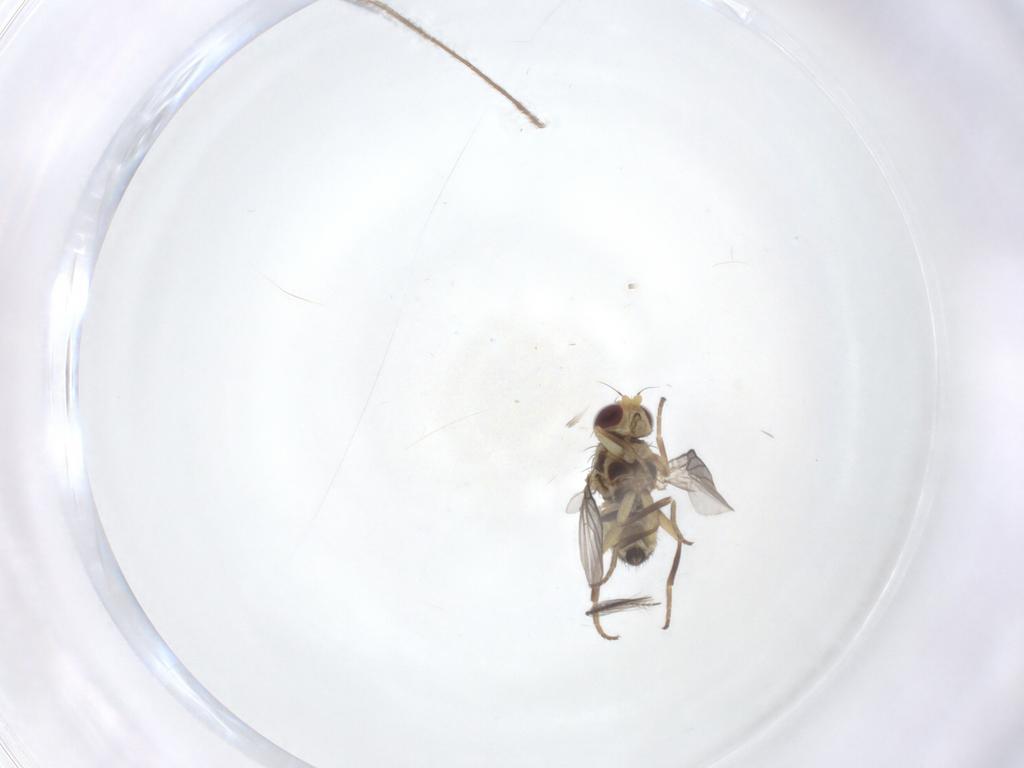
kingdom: Animalia
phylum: Arthropoda
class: Insecta
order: Diptera
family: Agromyzidae
